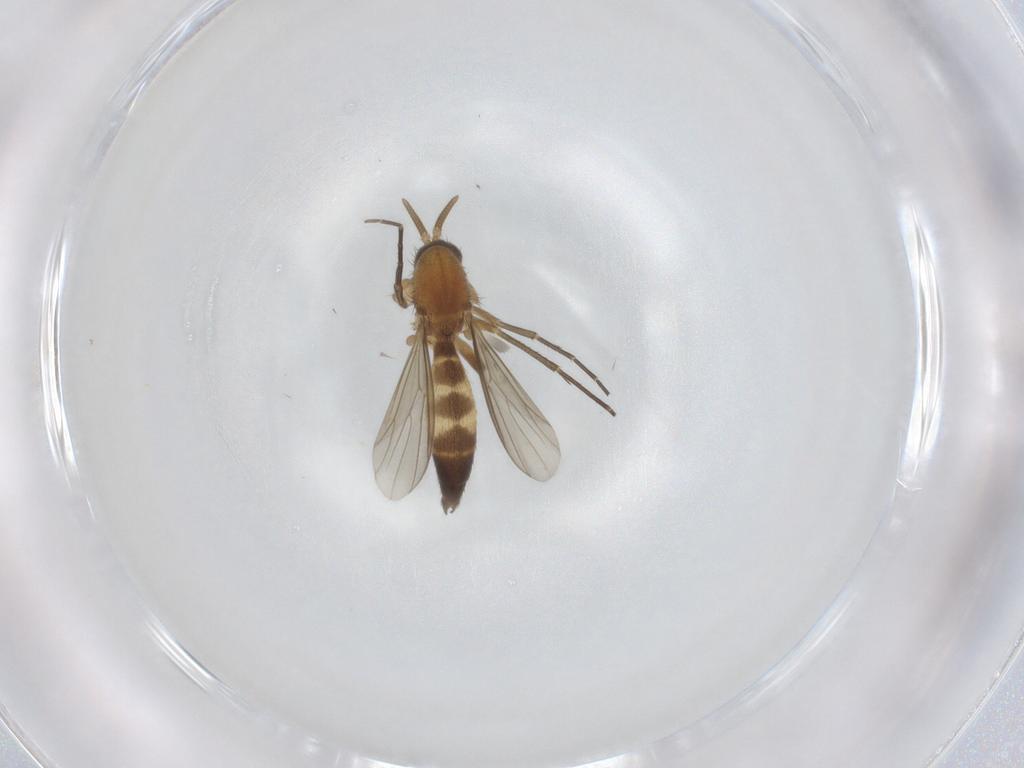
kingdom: Animalia
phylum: Arthropoda
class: Insecta
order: Diptera
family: Mycetophilidae
